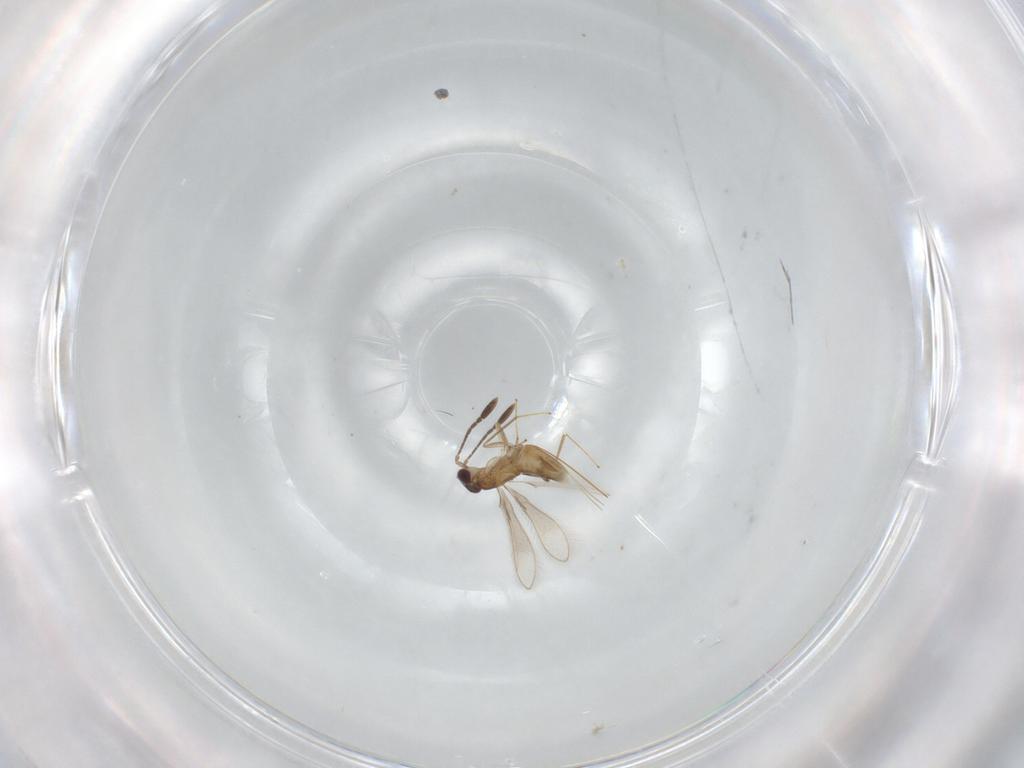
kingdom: Animalia
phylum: Arthropoda
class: Insecta
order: Hymenoptera
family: Mymaridae
